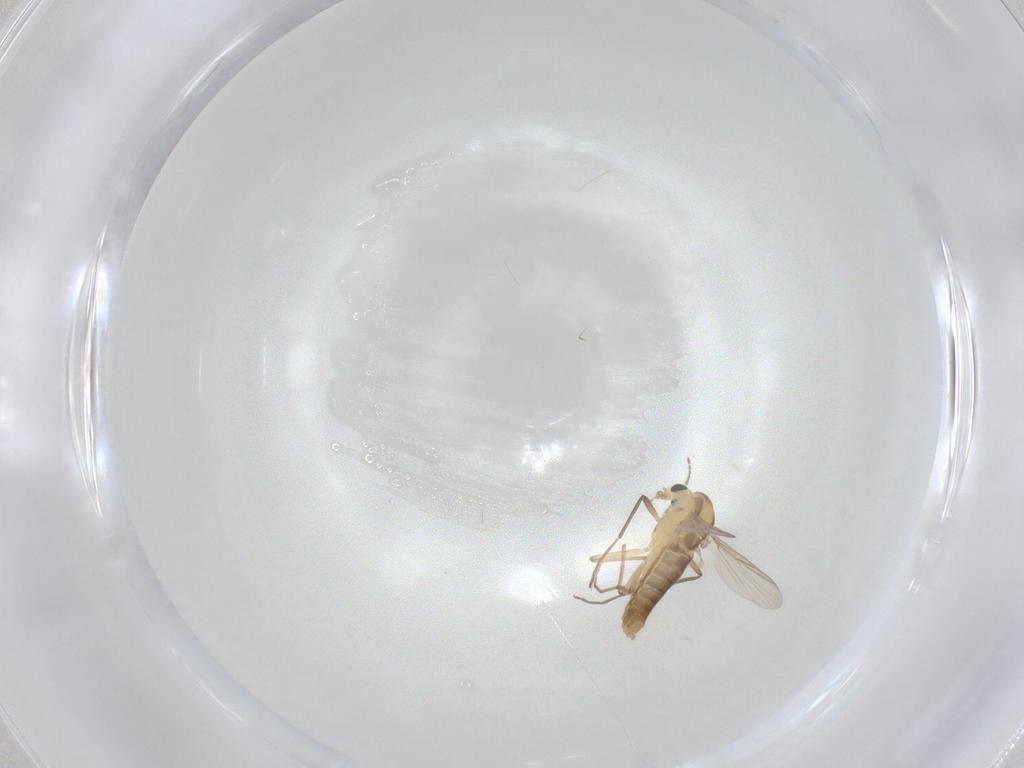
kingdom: Animalia
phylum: Arthropoda
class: Insecta
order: Diptera
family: Chironomidae
